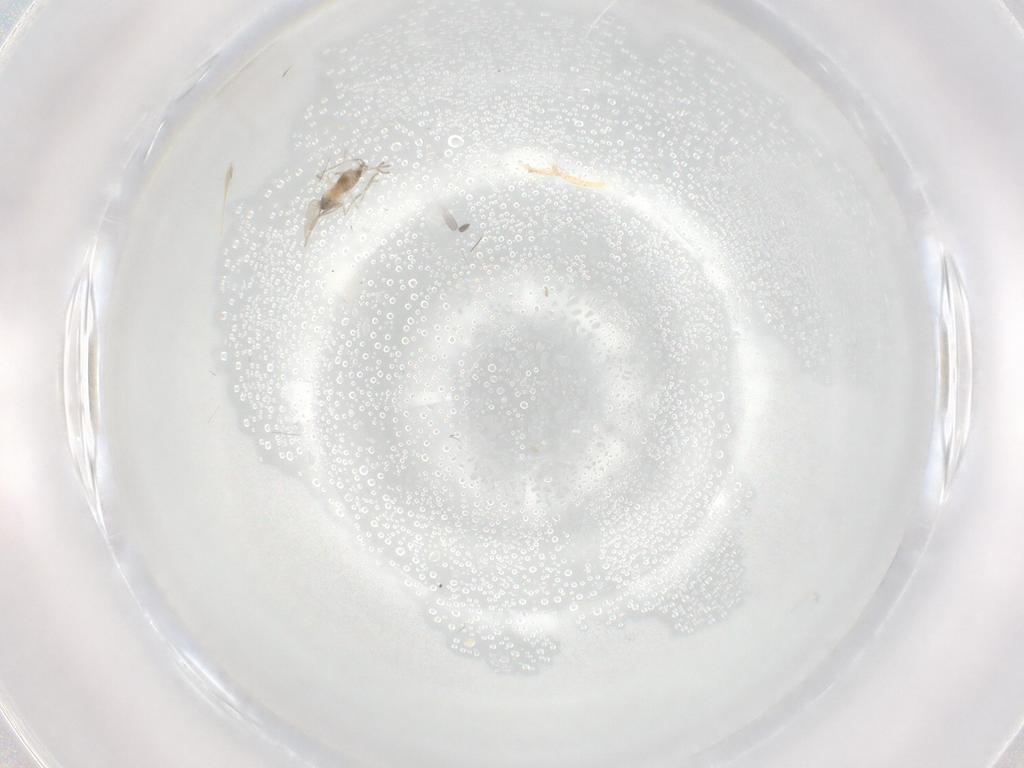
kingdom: Animalia
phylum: Arthropoda
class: Insecta
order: Diptera
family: Cecidomyiidae
